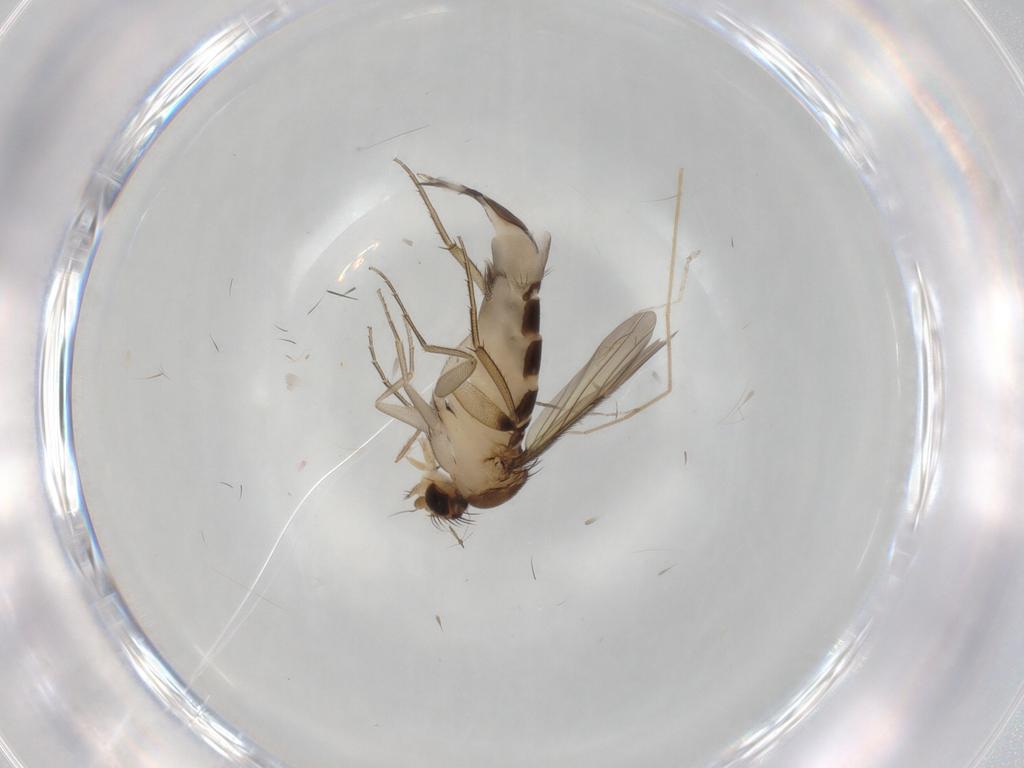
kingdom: Animalia
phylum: Arthropoda
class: Insecta
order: Diptera
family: Phoridae
